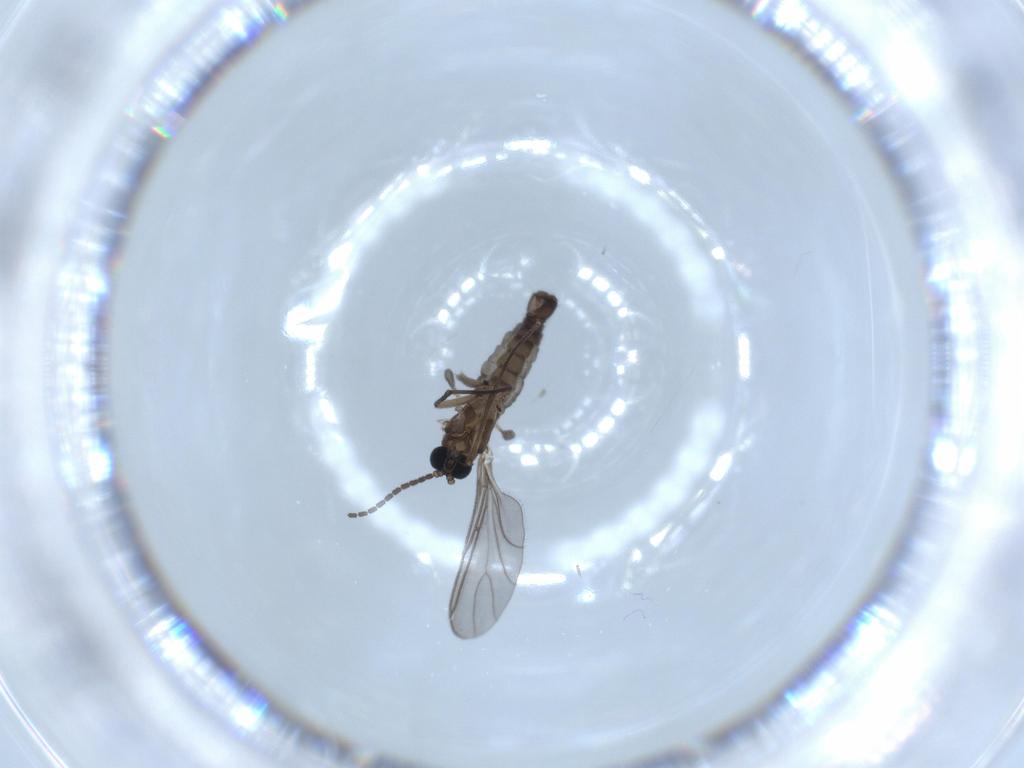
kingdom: Animalia
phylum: Arthropoda
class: Insecta
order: Diptera
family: Sciaridae
